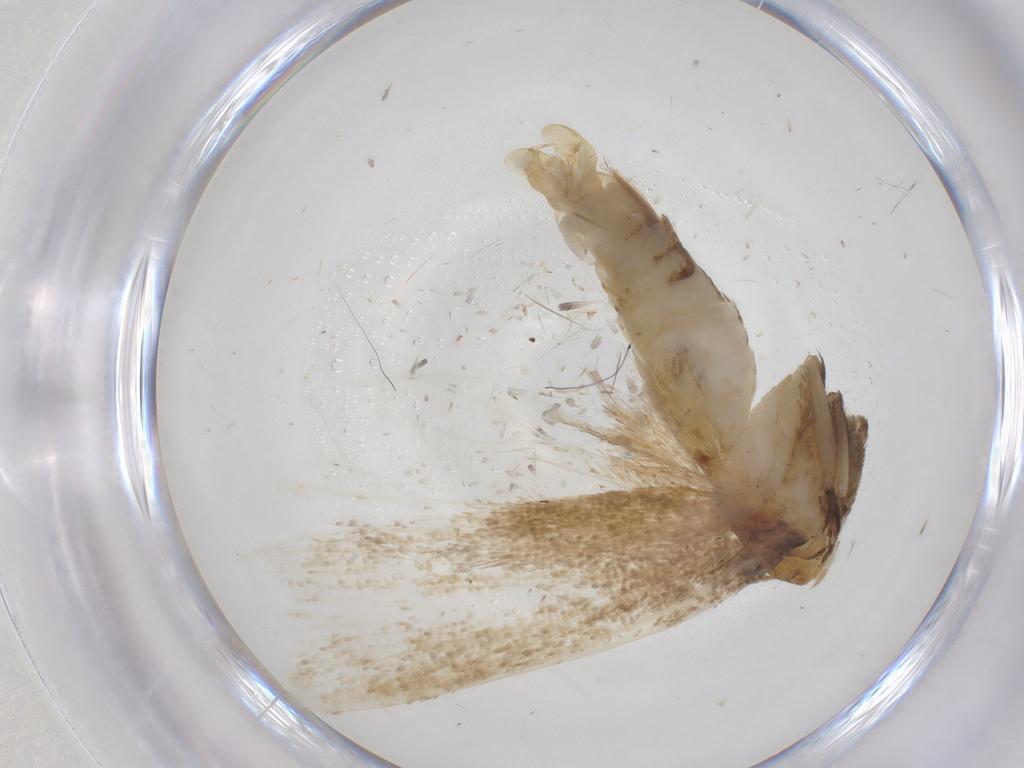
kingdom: Animalia
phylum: Arthropoda
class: Insecta
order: Lepidoptera
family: Lecithoceridae
